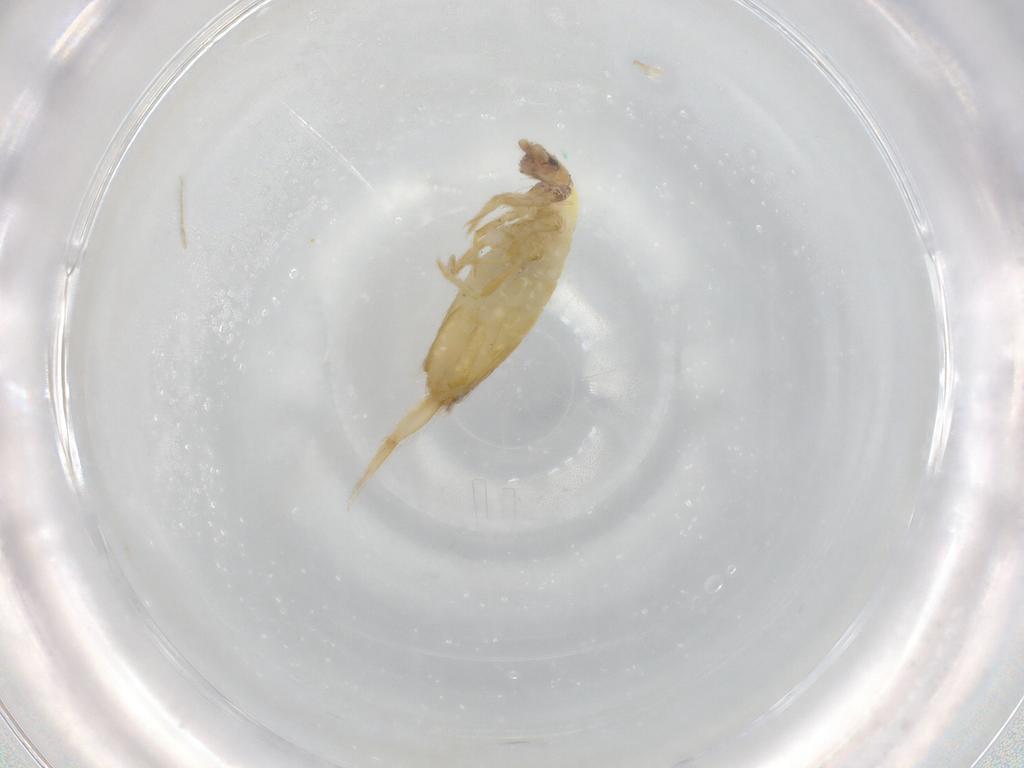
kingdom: Animalia
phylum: Arthropoda
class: Collembola
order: Entomobryomorpha
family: Entomobryidae
